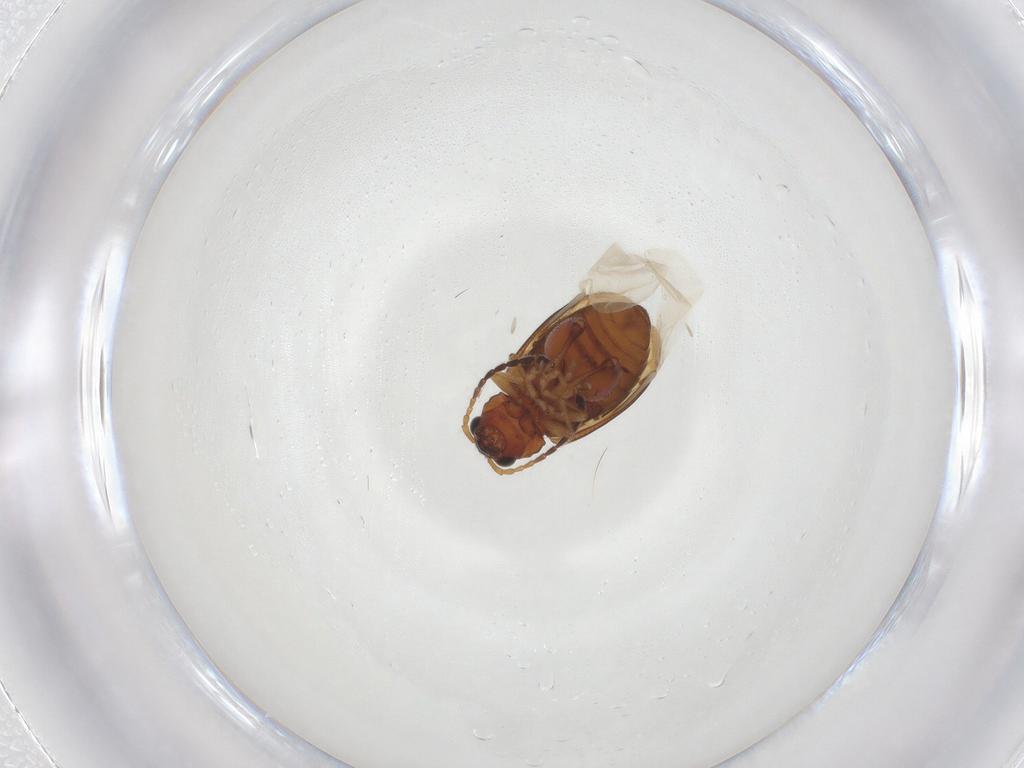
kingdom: Animalia
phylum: Arthropoda
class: Insecta
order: Coleoptera
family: Chrysomelidae
